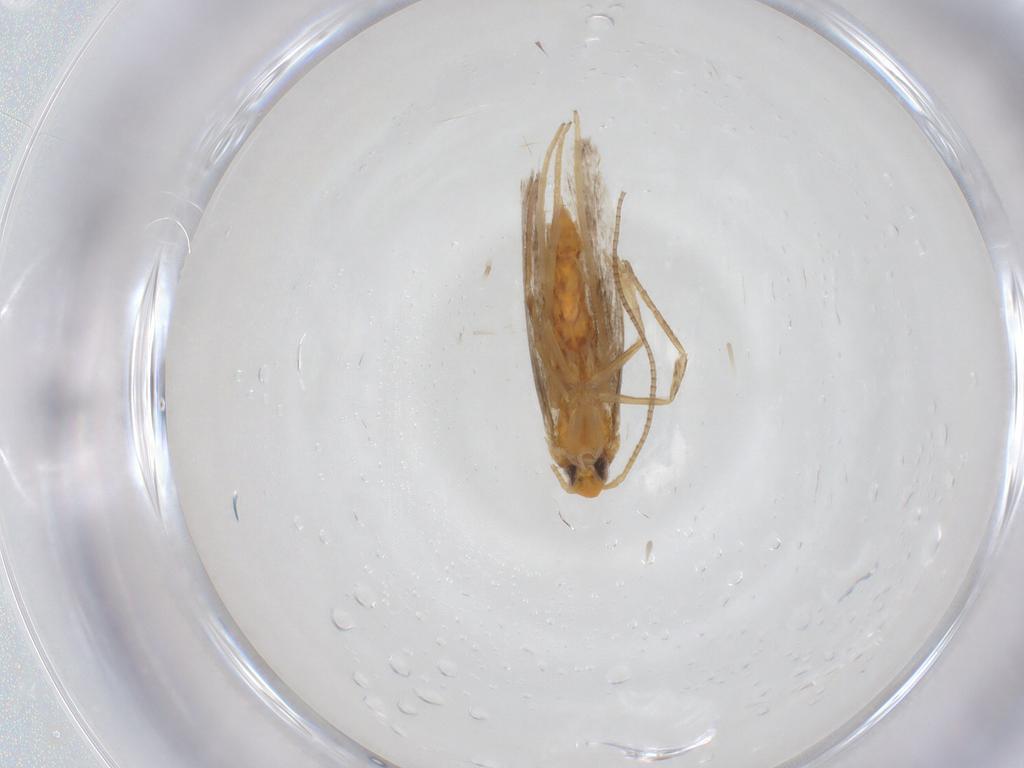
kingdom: Animalia
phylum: Arthropoda
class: Insecta
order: Lepidoptera
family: Gracillariidae
